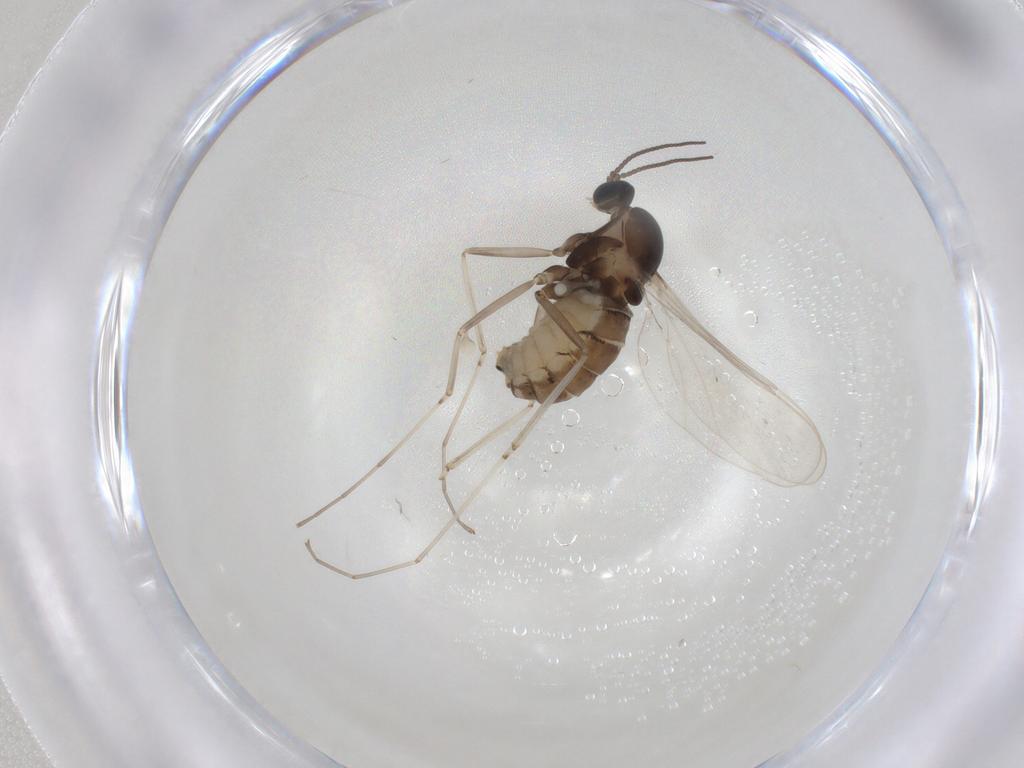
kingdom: Animalia
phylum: Arthropoda
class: Insecta
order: Diptera
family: Cecidomyiidae
